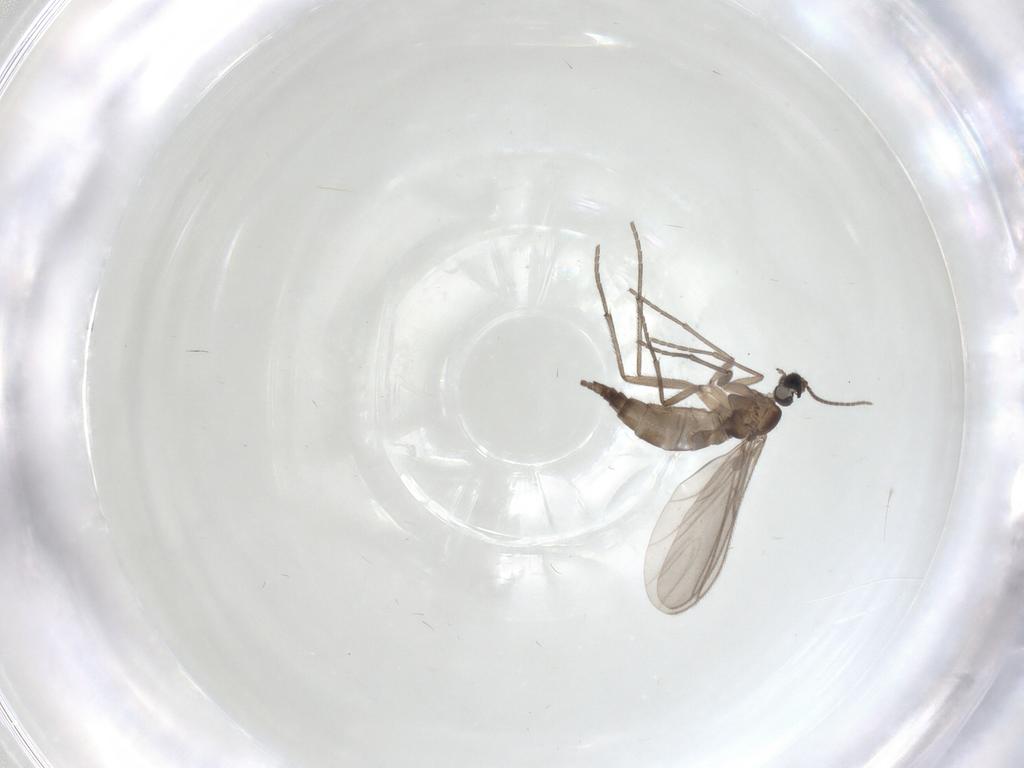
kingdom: Animalia
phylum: Arthropoda
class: Insecta
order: Diptera
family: Sciaridae
